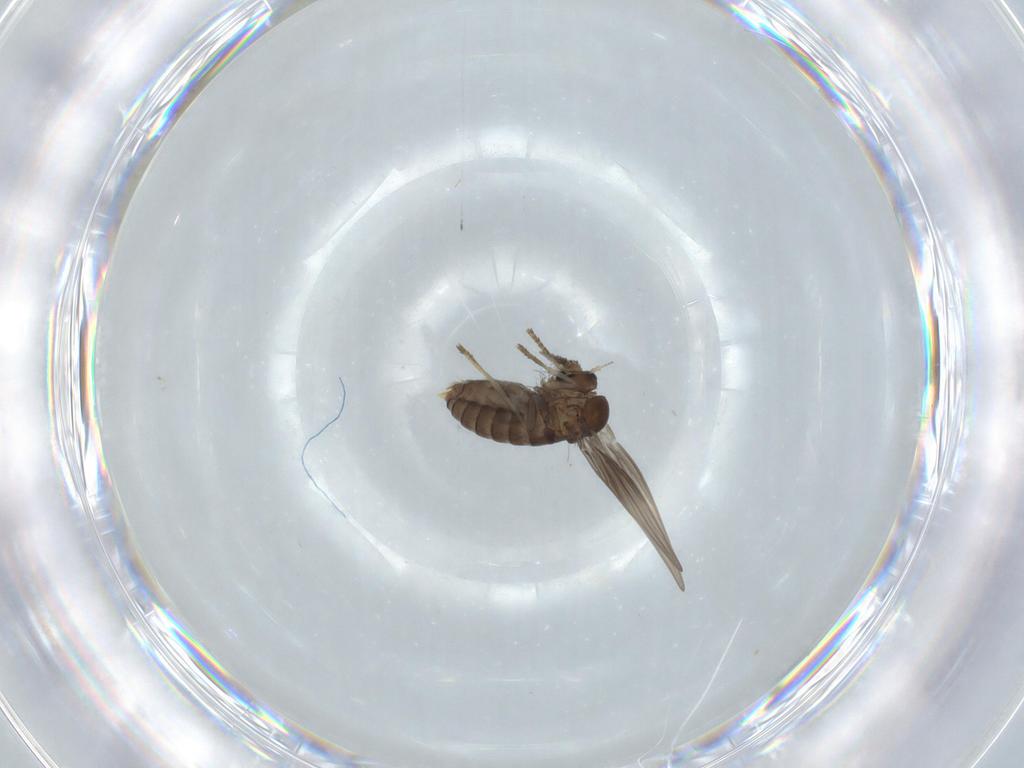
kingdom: Animalia
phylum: Arthropoda
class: Insecta
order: Diptera
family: Psychodidae
